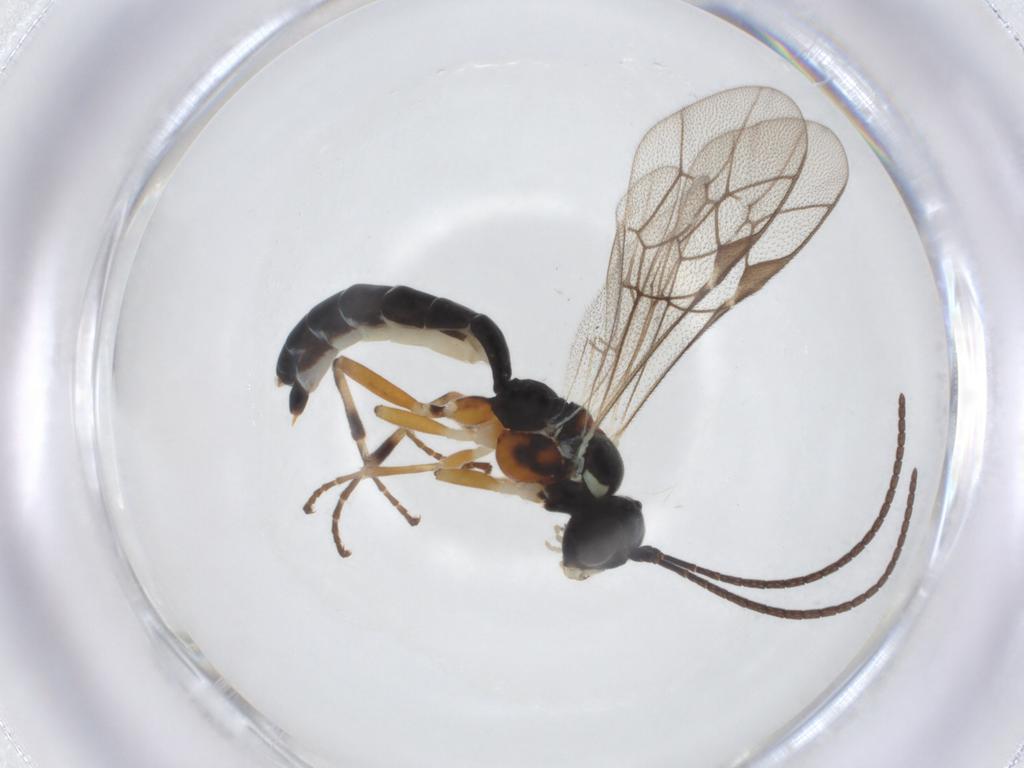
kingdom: Animalia
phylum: Arthropoda
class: Insecta
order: Hymenoptera
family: Ichneumonidae
